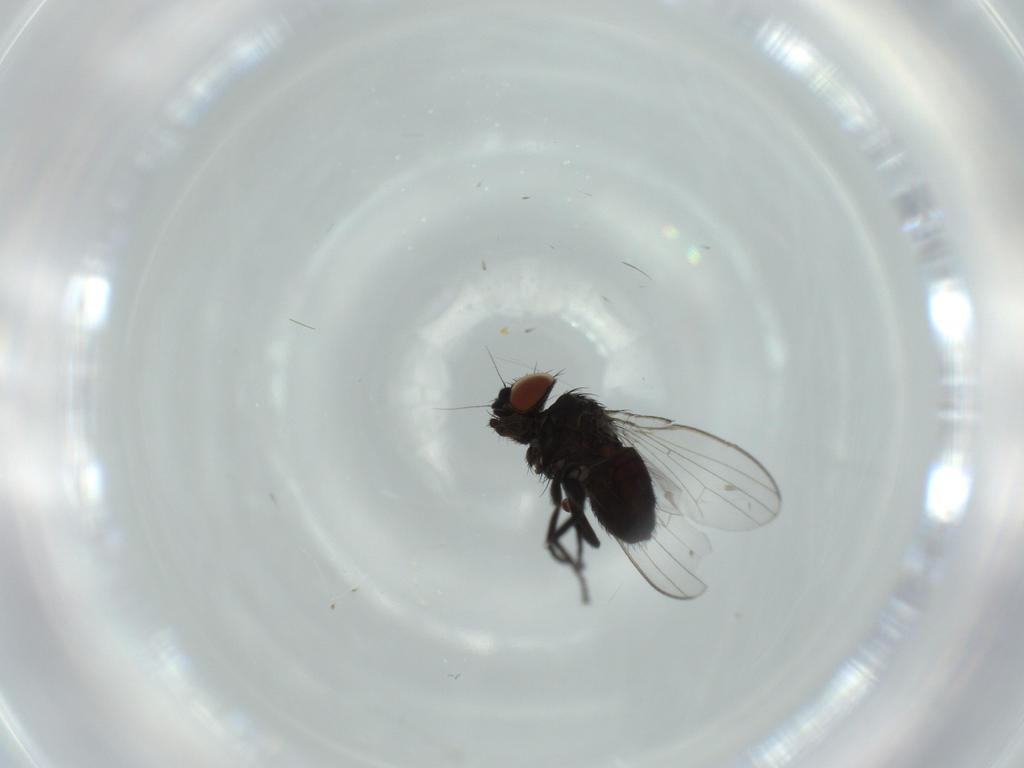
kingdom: Animalia
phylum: Arthropoda
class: Insecta
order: Diptera
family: Milichiidae
